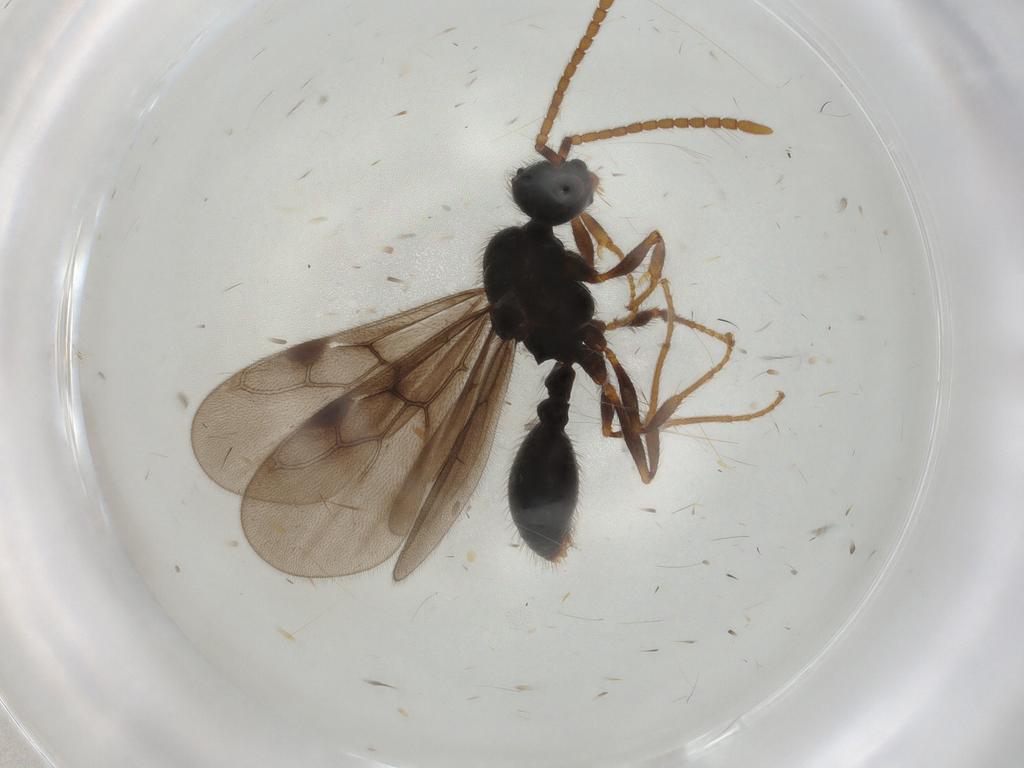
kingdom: Animalia
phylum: Arthropoda
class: Insecta
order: Hymenoptera
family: Formicidae
